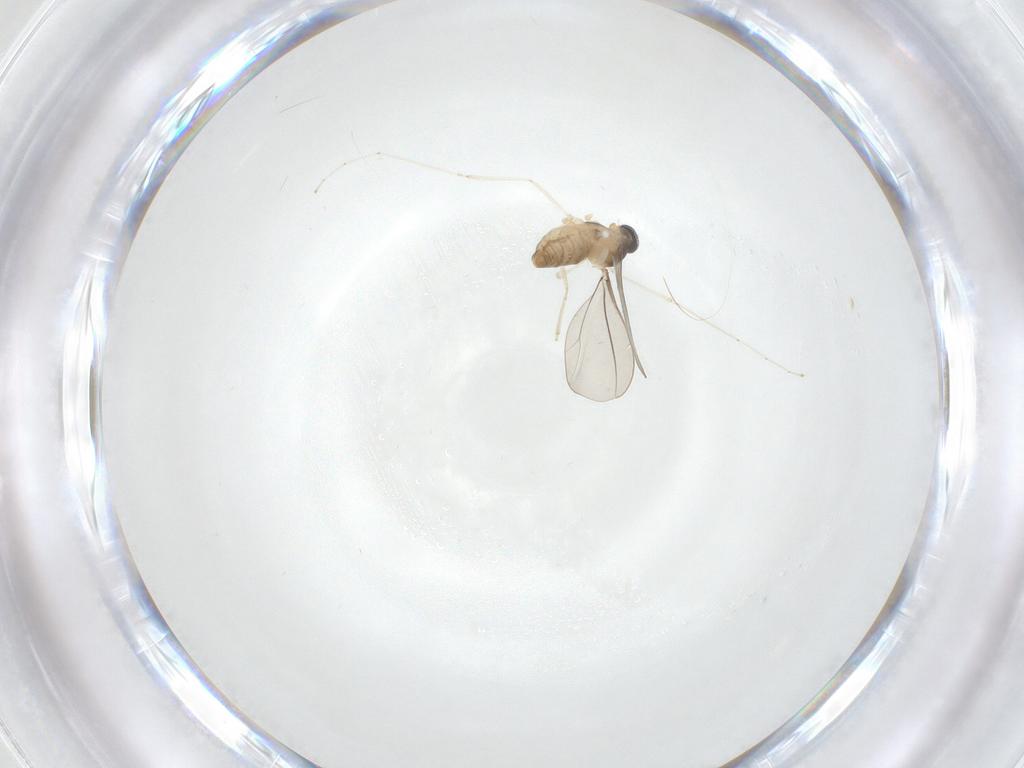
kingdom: Animalia
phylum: Arthropoda
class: Insecta
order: Diptera
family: Cecidomyiidae
